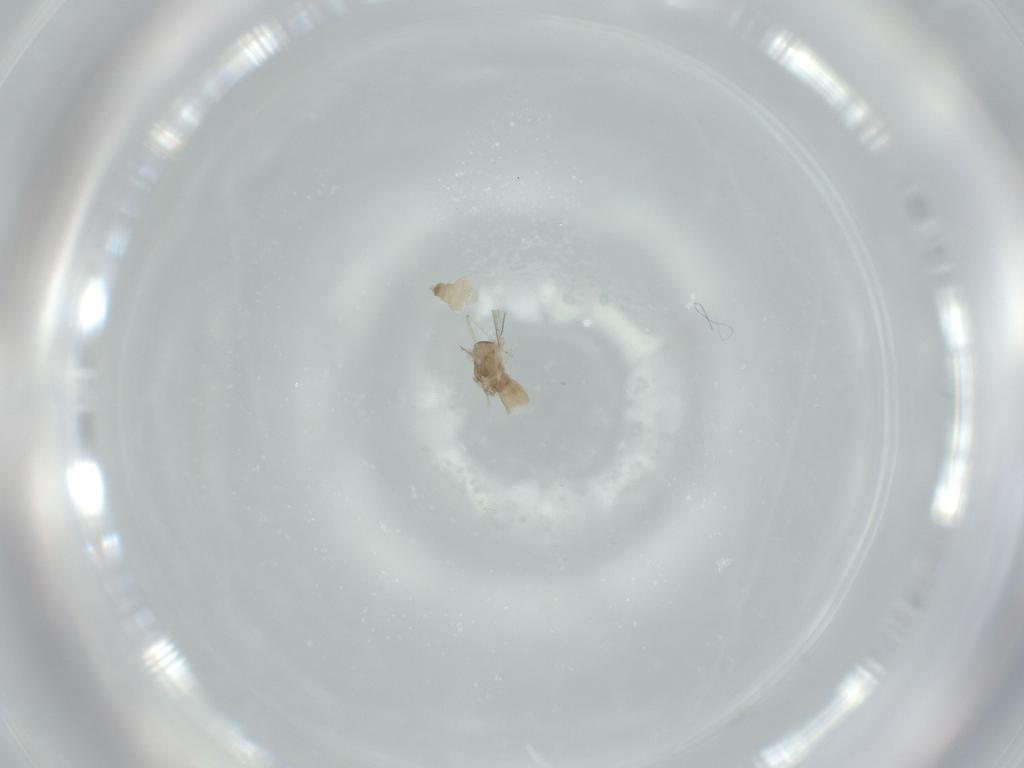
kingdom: Animalia
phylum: Arthropoda
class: Insecta
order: Diptera
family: Cecidomyiidae
